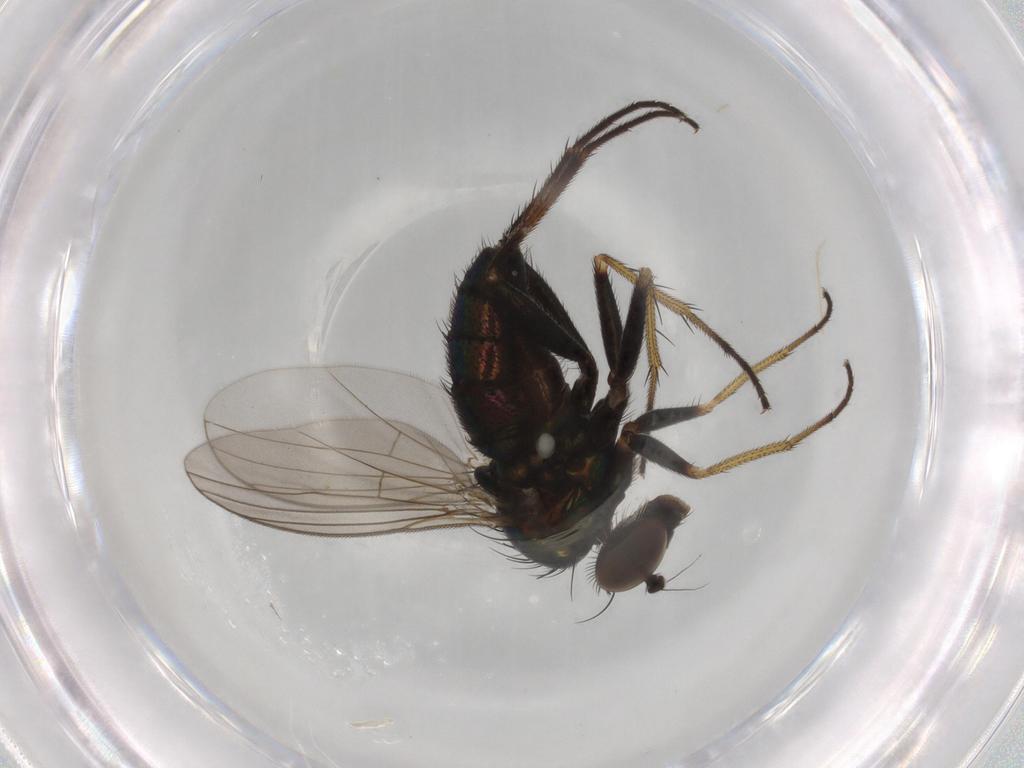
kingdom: Animalia
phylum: Arthropoda
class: Insecta
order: Diptera
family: Dolichopodidae
